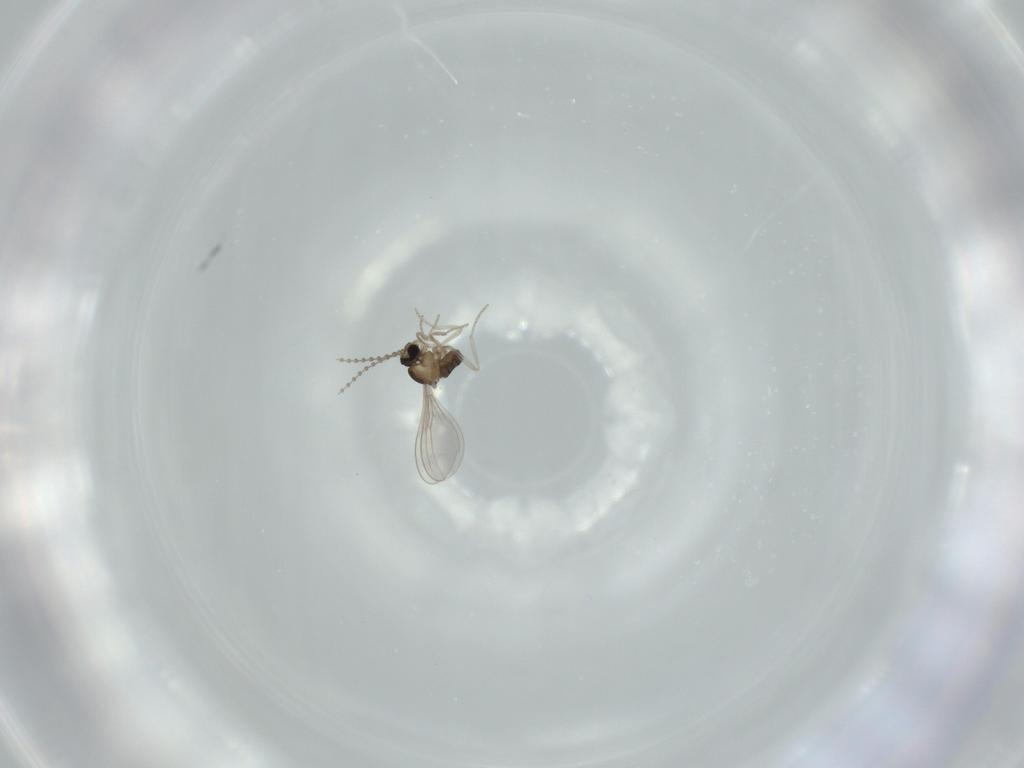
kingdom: Animalia
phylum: Arthropoda
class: Insecta
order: Diptera
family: Cecidomyiidae
